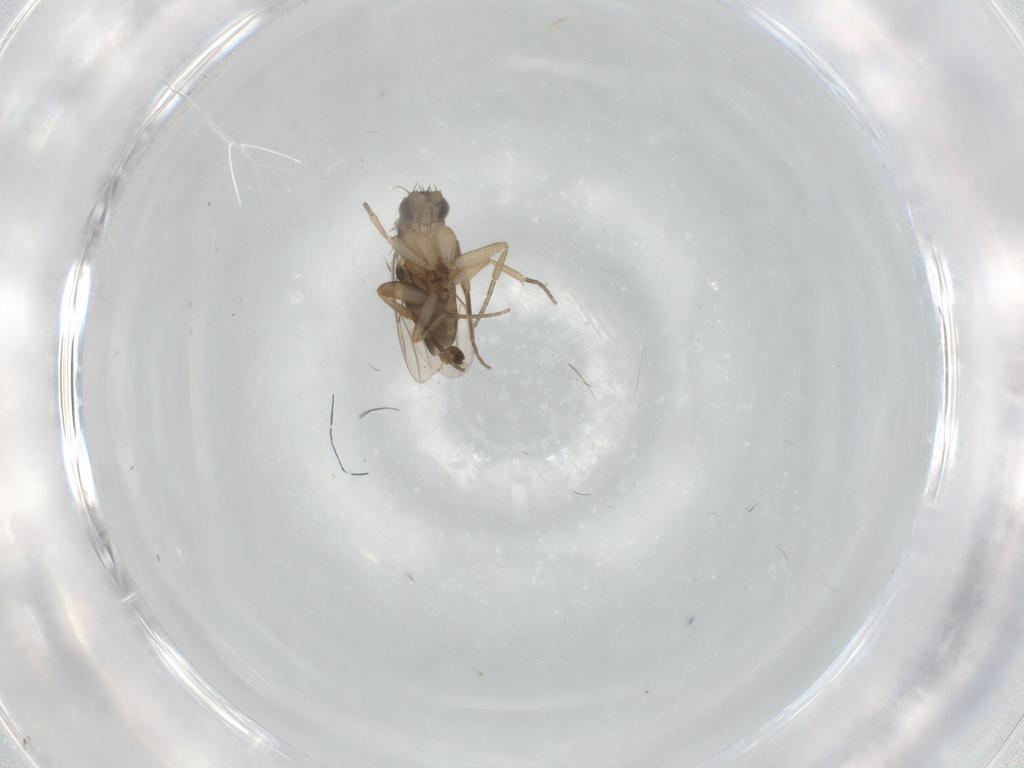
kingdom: Animalia
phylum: Arthropoda
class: Insecta
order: Diptera
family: Phoridae
